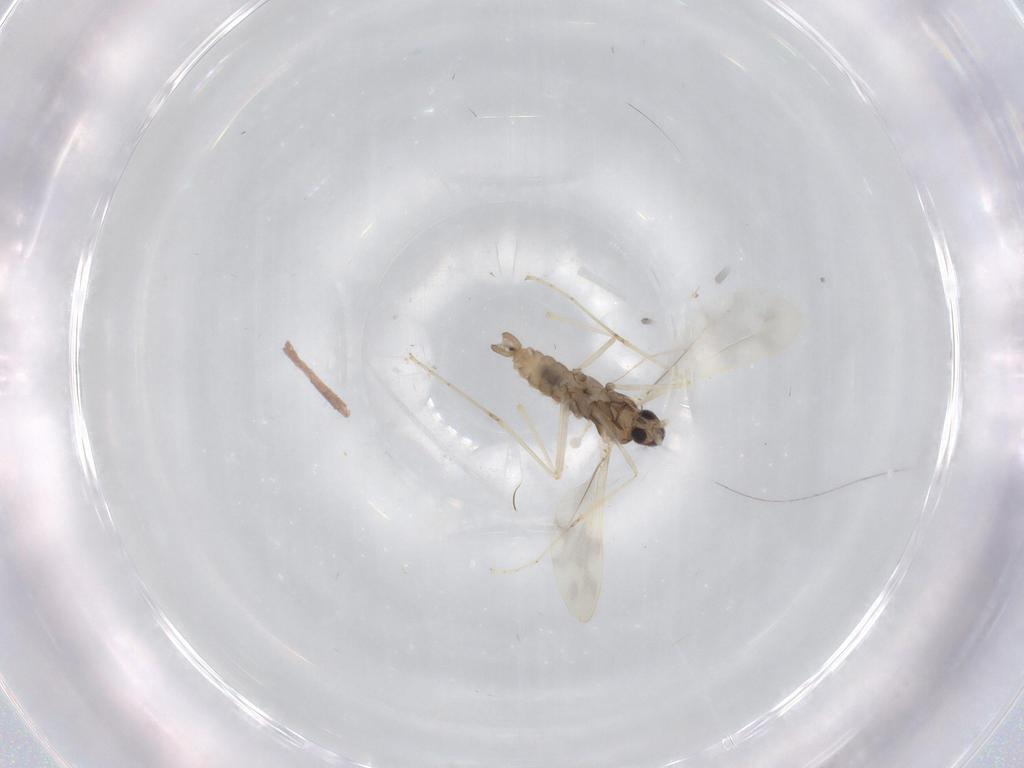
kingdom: Animalia
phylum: Arthropoda
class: Insecta
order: Diptera
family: Cecidomyiidae
